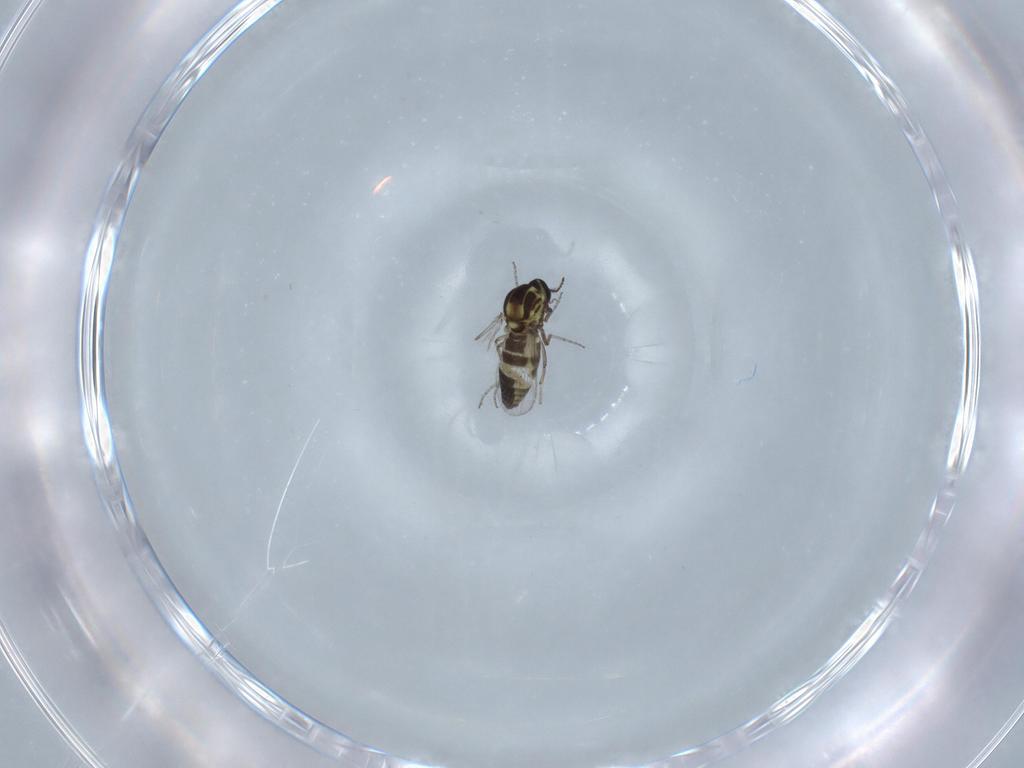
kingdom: Animalia
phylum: Arthropoda
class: Insecta
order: Diptera
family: Ceratopogonidae
